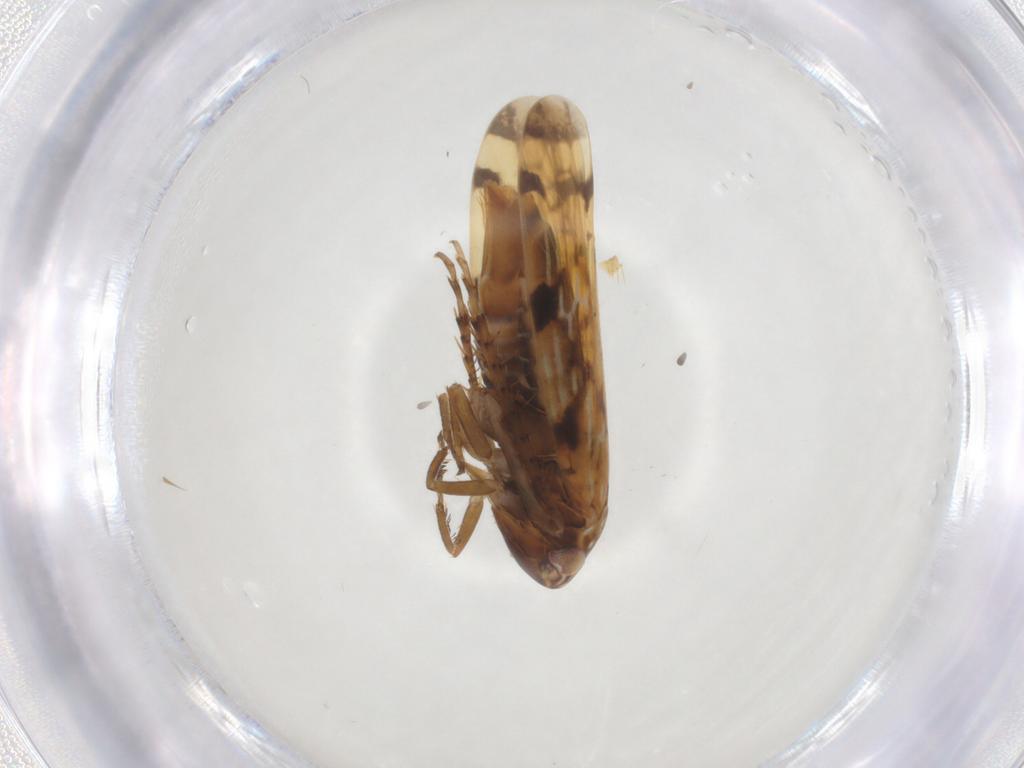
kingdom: Animalia
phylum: Arthropoda
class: Insecta
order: Hemiptera
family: Cicadellidae
